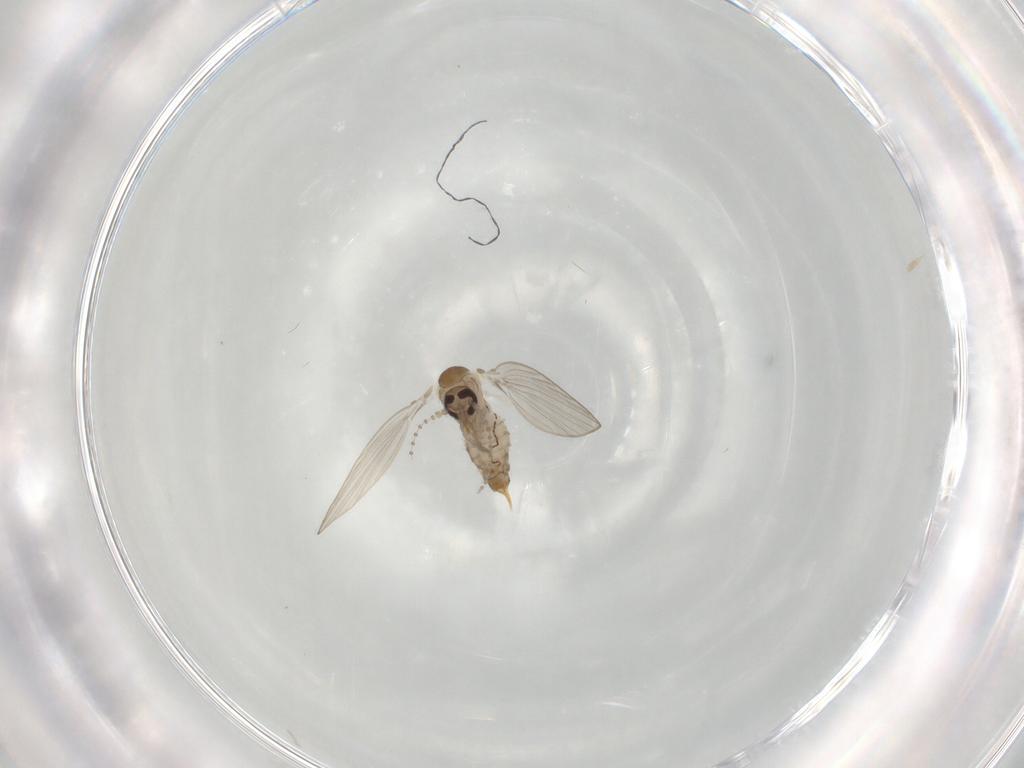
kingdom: Animalia
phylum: Arthropoda
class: Insecta
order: Diptera
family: Psychodidae
